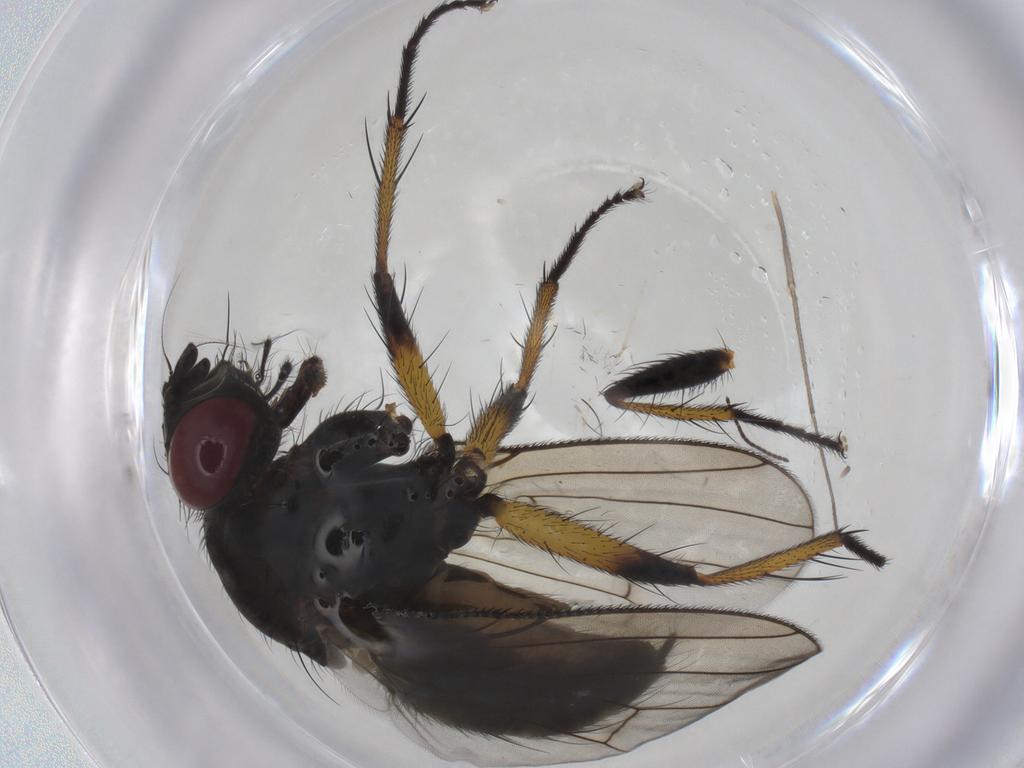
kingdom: Animalia
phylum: Arthropoda
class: Insecta
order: Diptera
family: Muscidae
